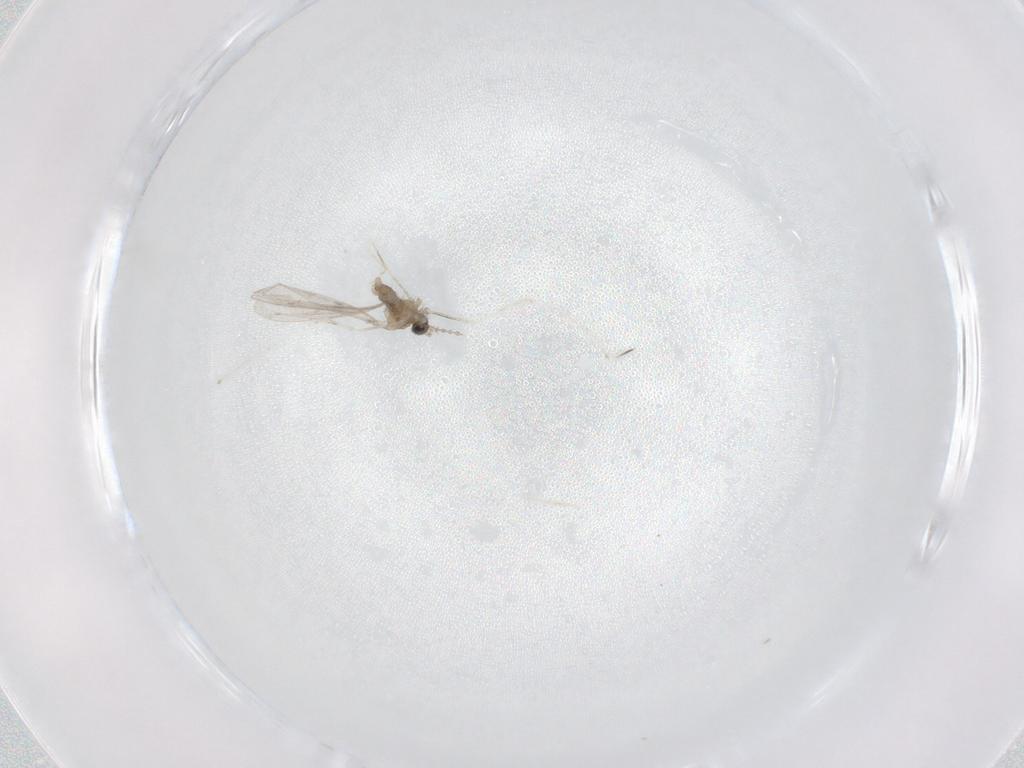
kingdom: Animalia
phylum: Arthropoda
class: Insecta
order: Diptera
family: Cecidomyiidae
